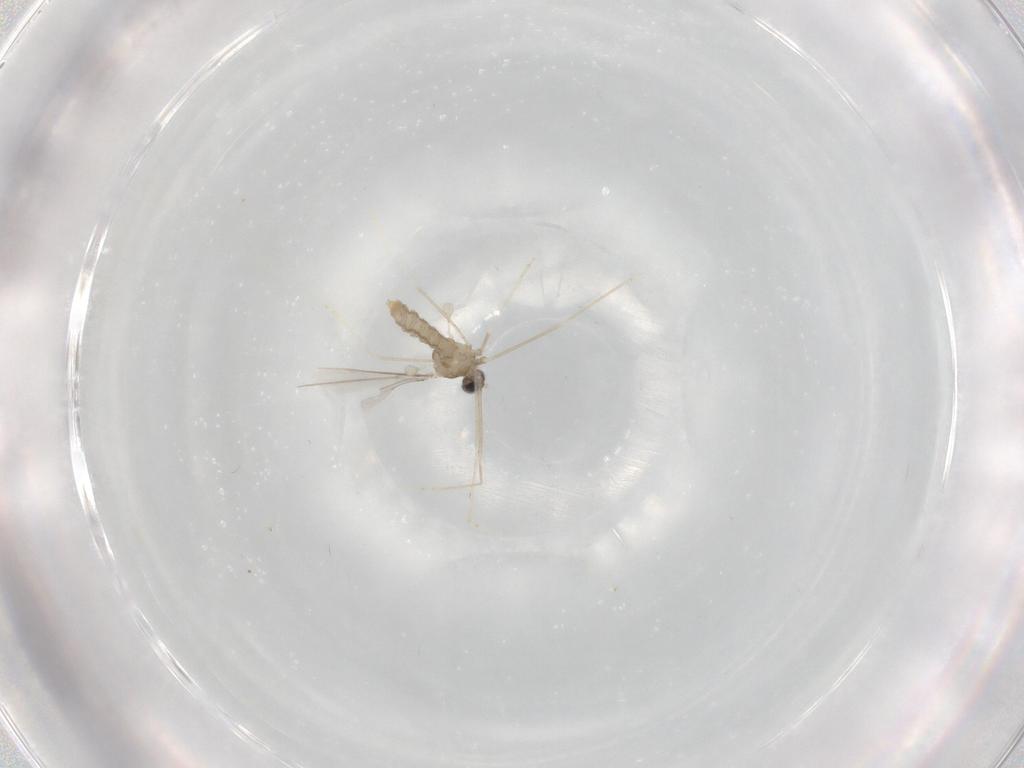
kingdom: Animalia
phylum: Arthropoda
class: Insecta
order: Diptera
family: Cecidomyiidae
